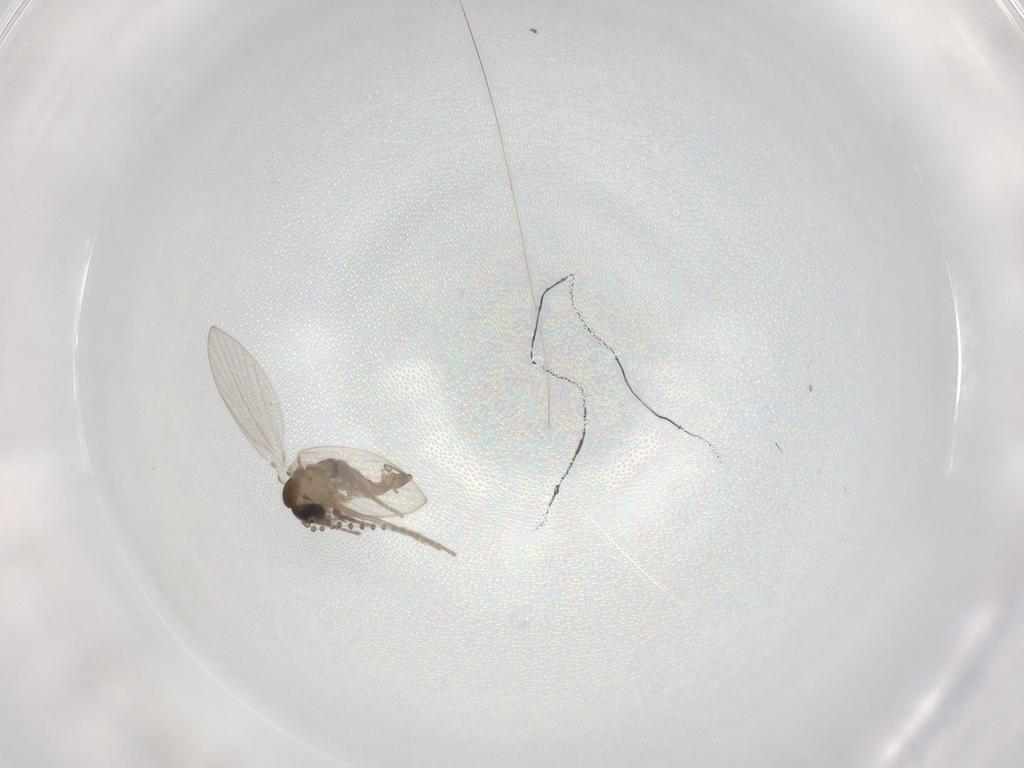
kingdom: Animalia
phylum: Arthropoda
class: Insecta
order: Diptera
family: Psychodidae
